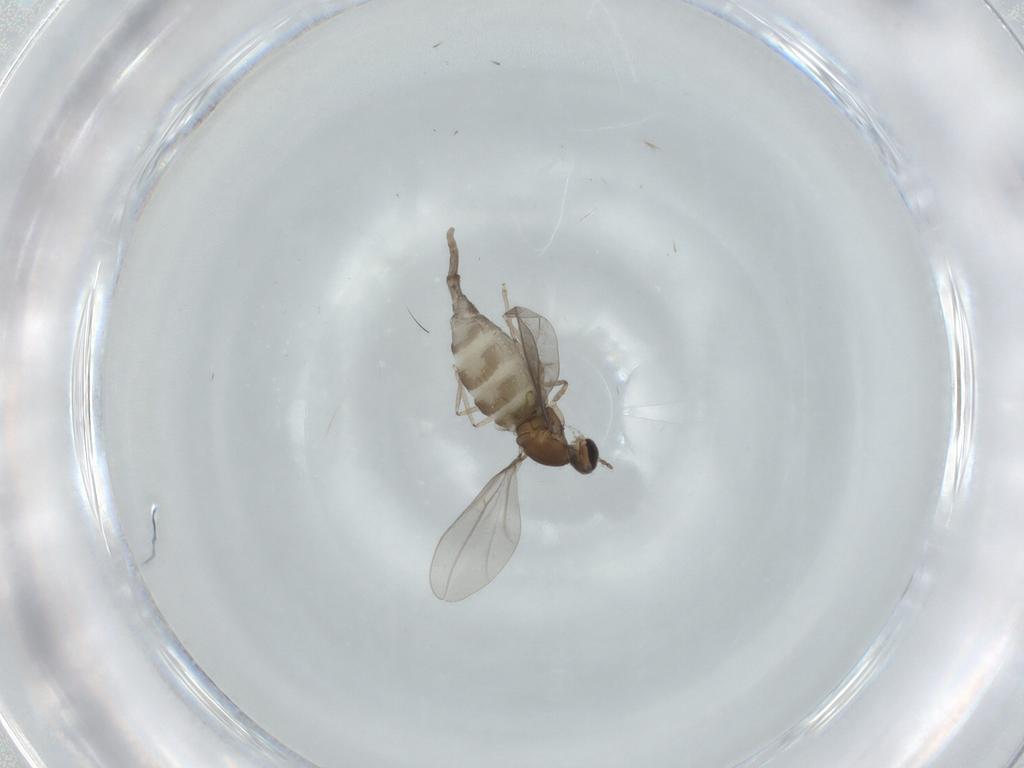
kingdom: Animalia
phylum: Arthropoda
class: Insecta
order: Diptera
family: Cecidomyiidae
